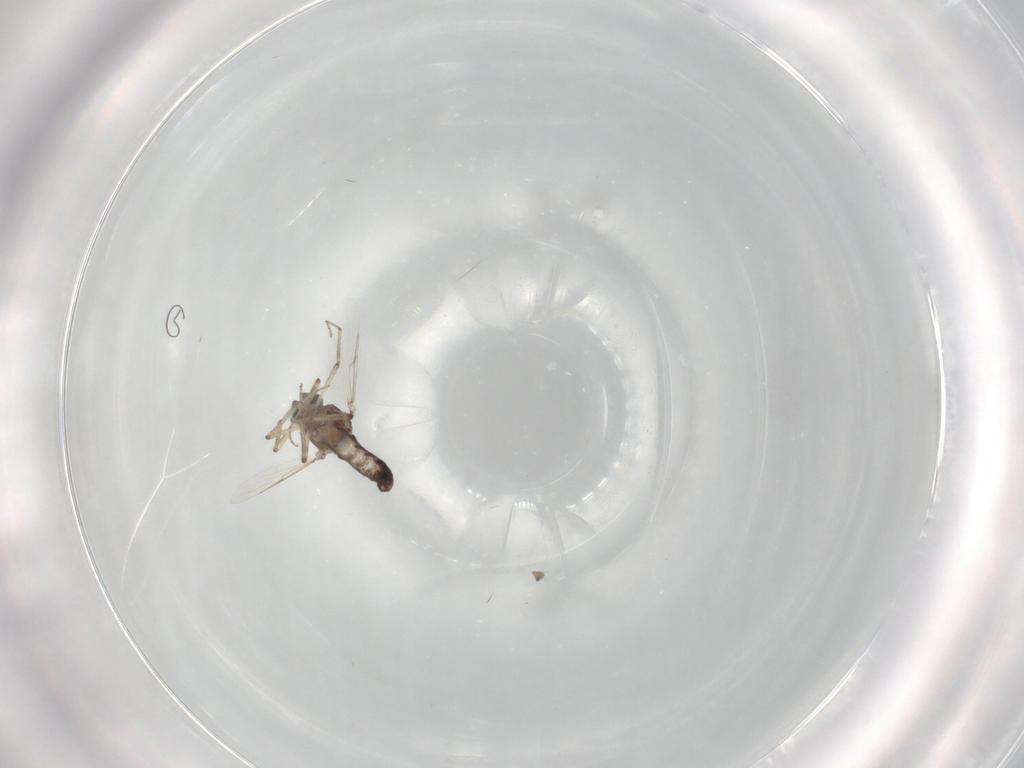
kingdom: Animalia
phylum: Arthropoda
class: Insecta
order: Diptera
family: Ceratopogonidae
